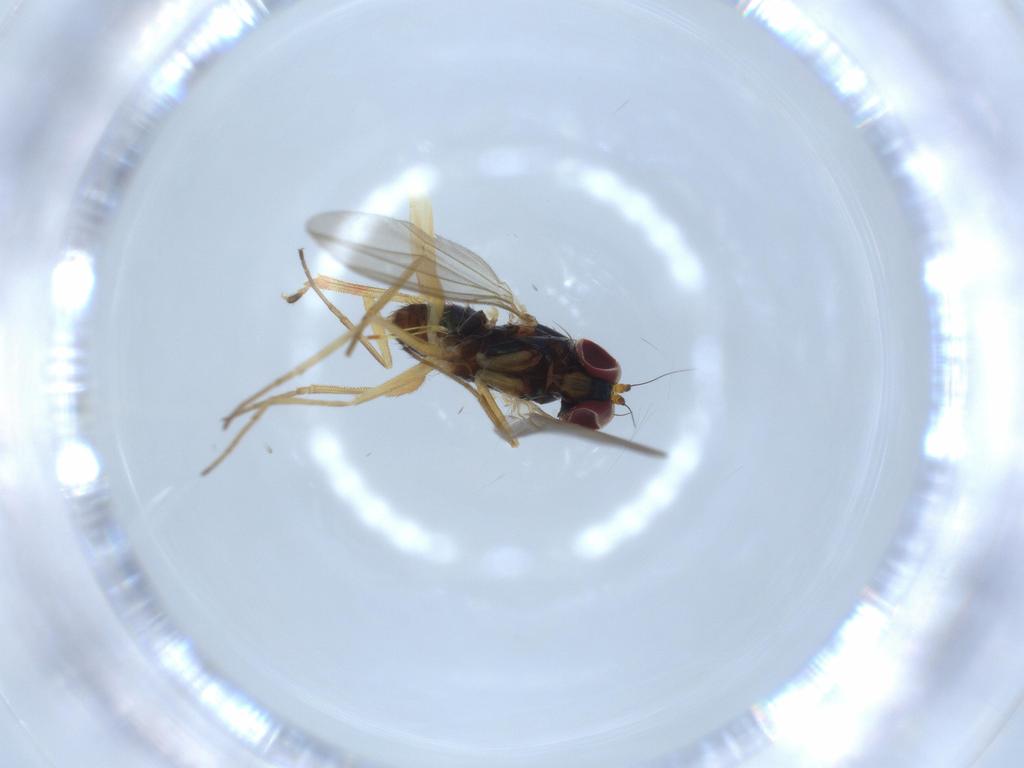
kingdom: Animalia
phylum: Arthropoda
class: Insecta
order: Diptera
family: Dolichopodidae
